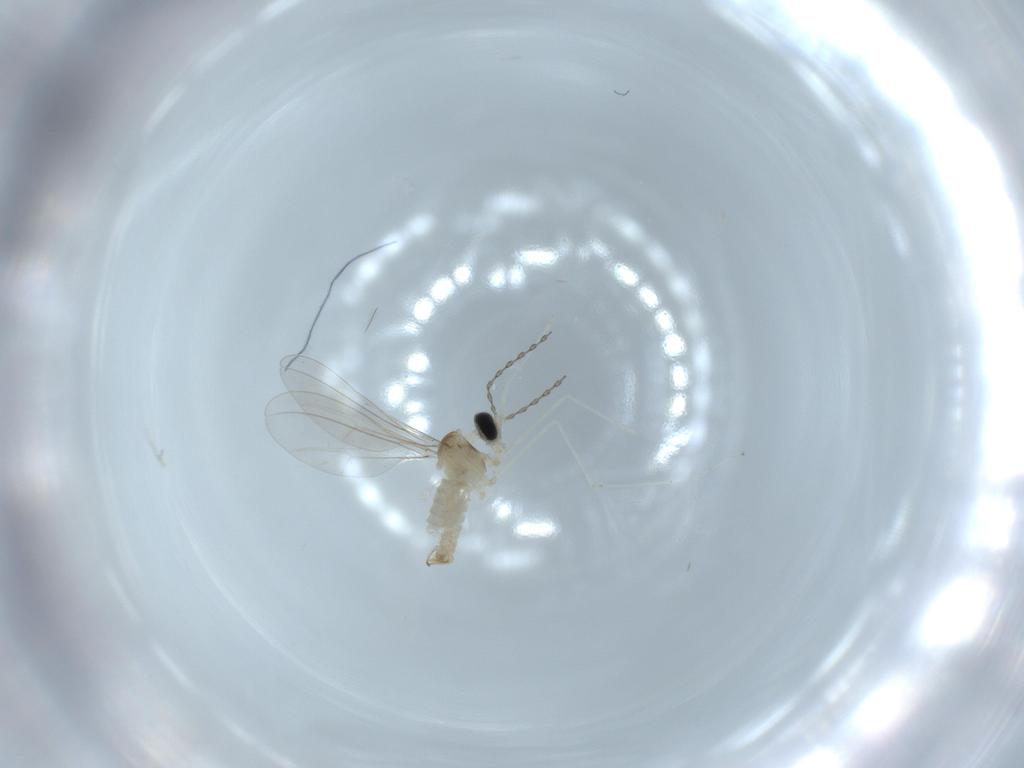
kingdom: Animalia
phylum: Arthropoda
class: Insecta
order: Diptera
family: Cecidomyiidae
